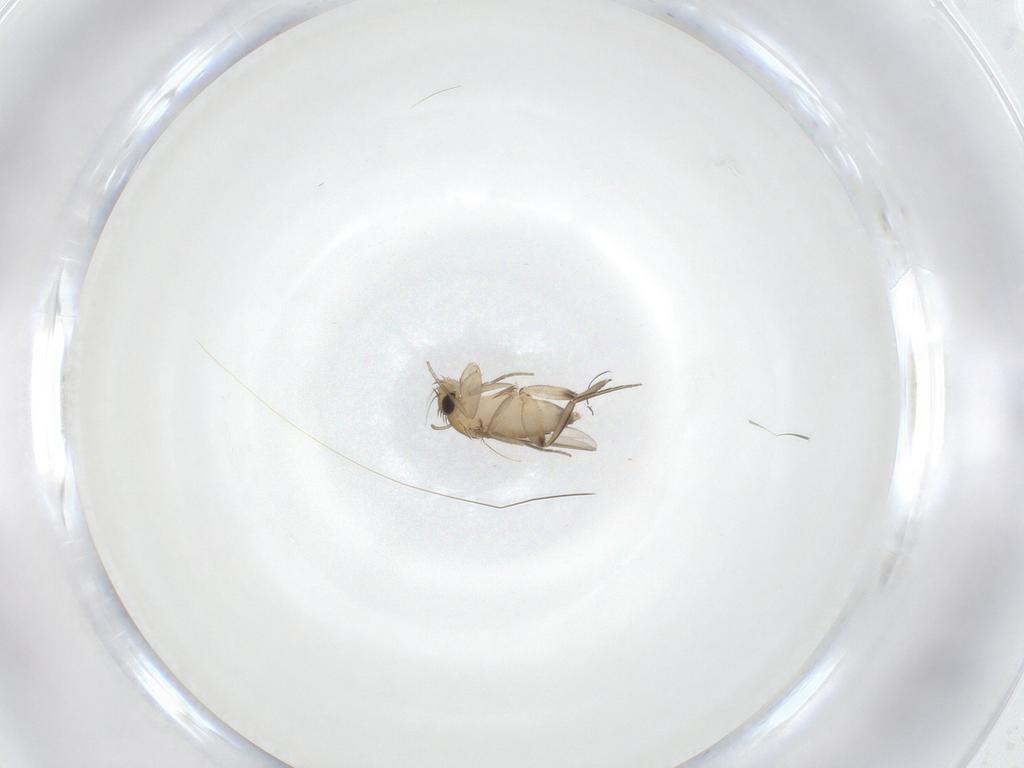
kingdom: Animalia
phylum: Arthropoda
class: Insecta
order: Diptera
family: Phoridae
